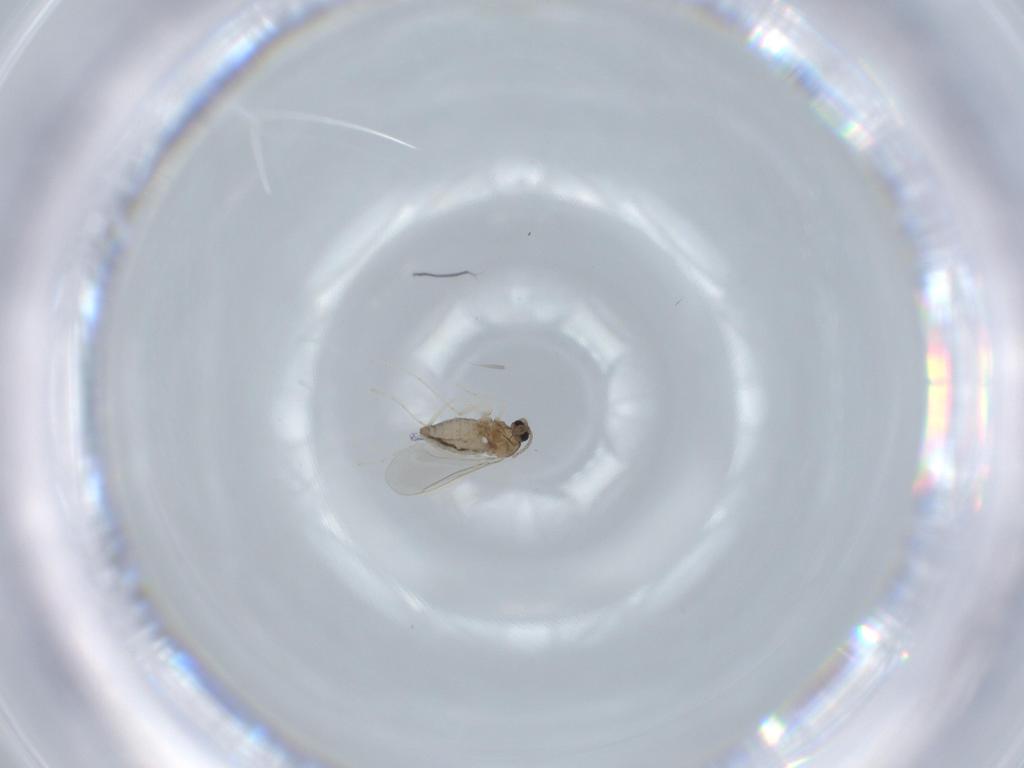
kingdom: Animalia
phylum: Arthropoda
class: Insecta
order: Diptera
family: Cecidomyiidae
